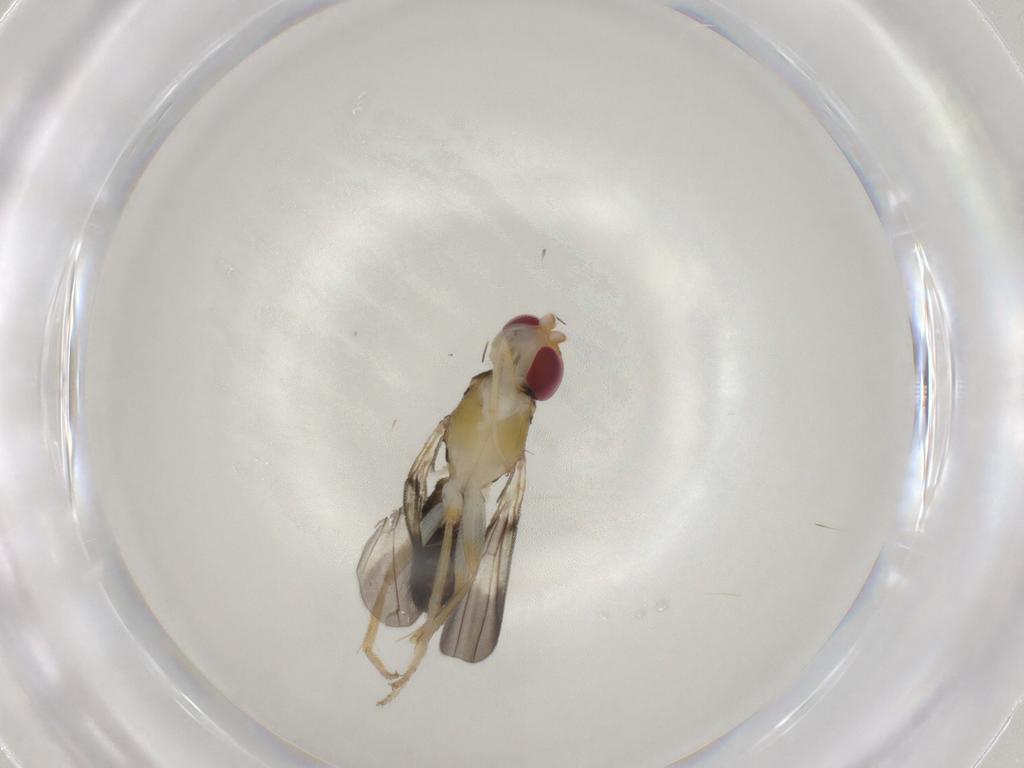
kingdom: Animalia
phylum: Arthropoda
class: Insecta
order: Diptera
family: Clusiidae
